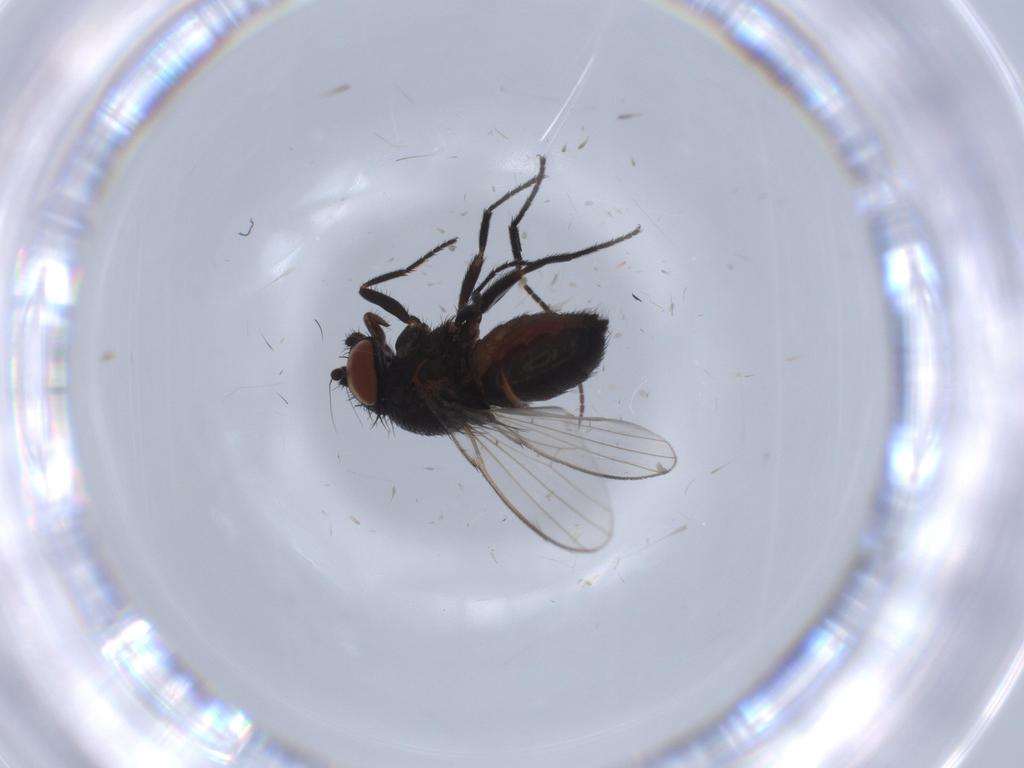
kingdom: Animalia
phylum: Arthropoda
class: Insecta
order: Diptera
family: Milichiidae
